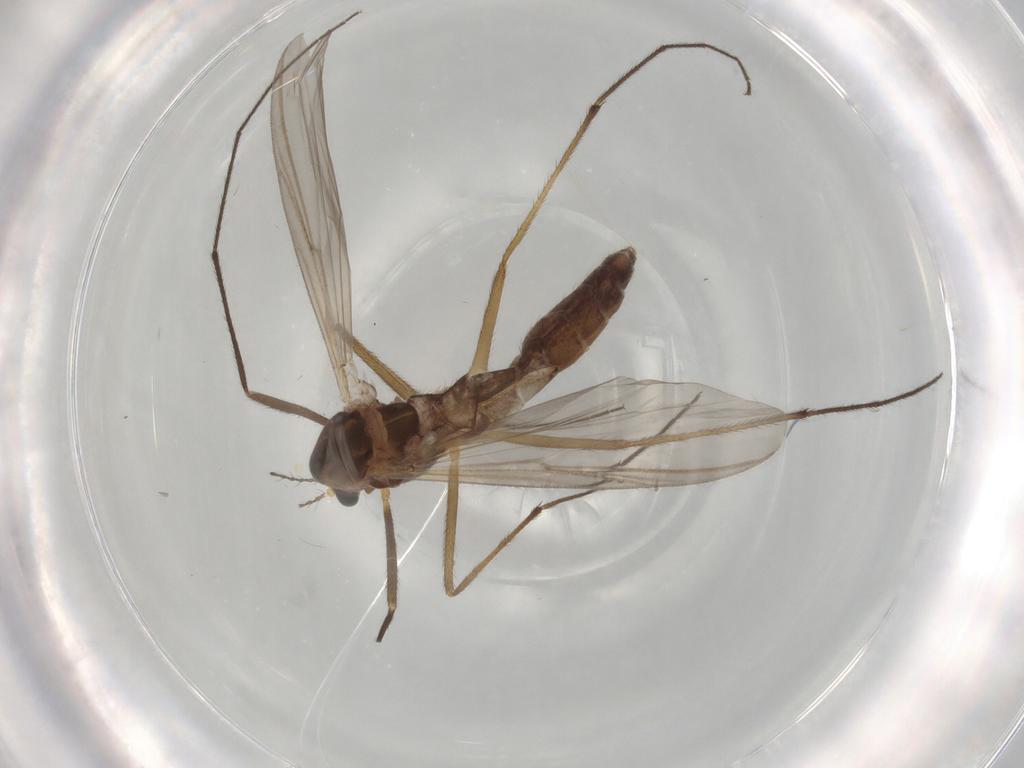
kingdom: Animalia
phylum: Arthropoda
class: Insecta
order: Diptera
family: Chironomidae
